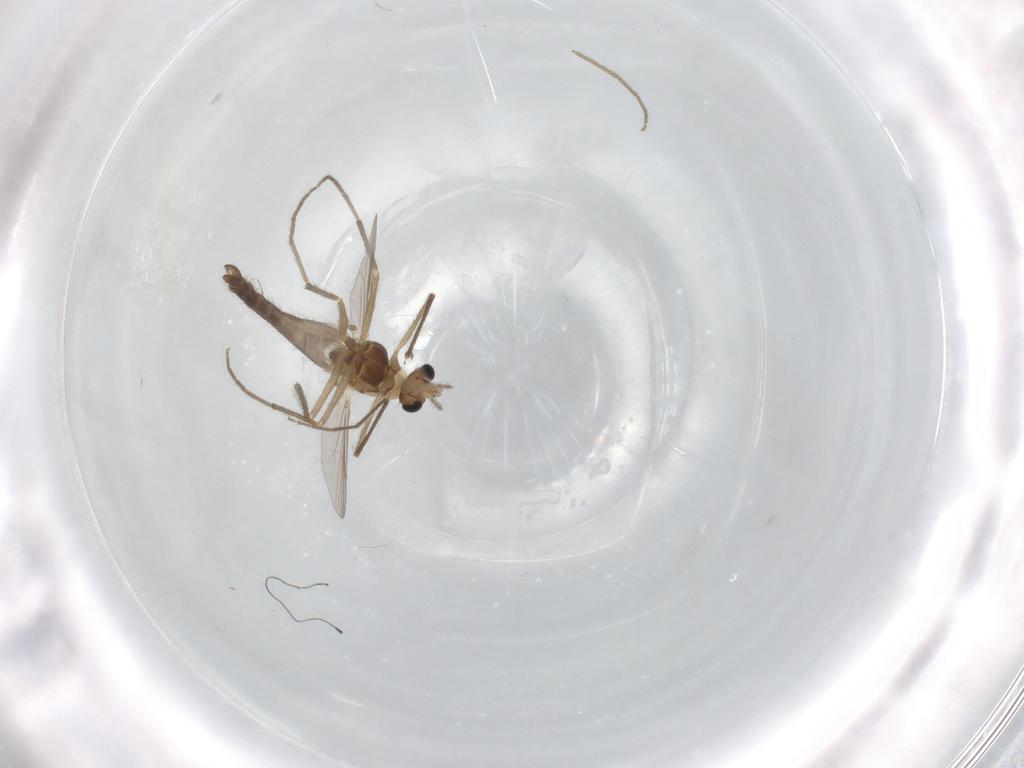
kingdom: Animalia
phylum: Arthropoda
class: Insecta
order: Diptera
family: Chironomidae
